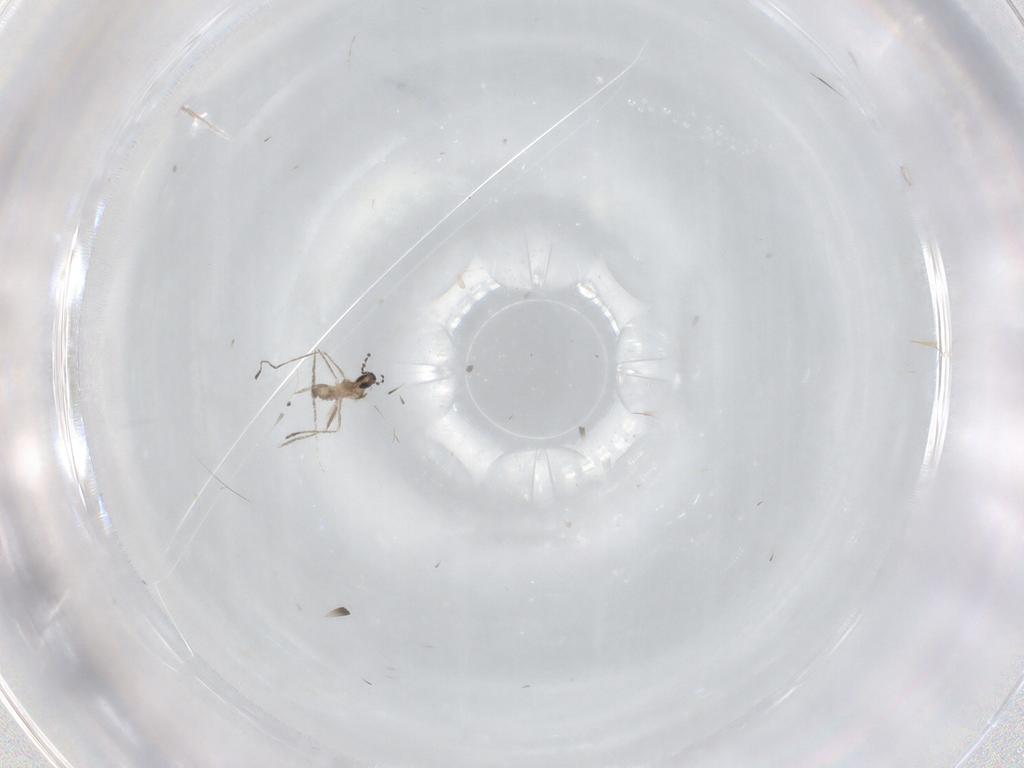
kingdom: Animalia
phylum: Arthropoda
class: Insecta
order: Diptera
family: Cecidomyiidae
